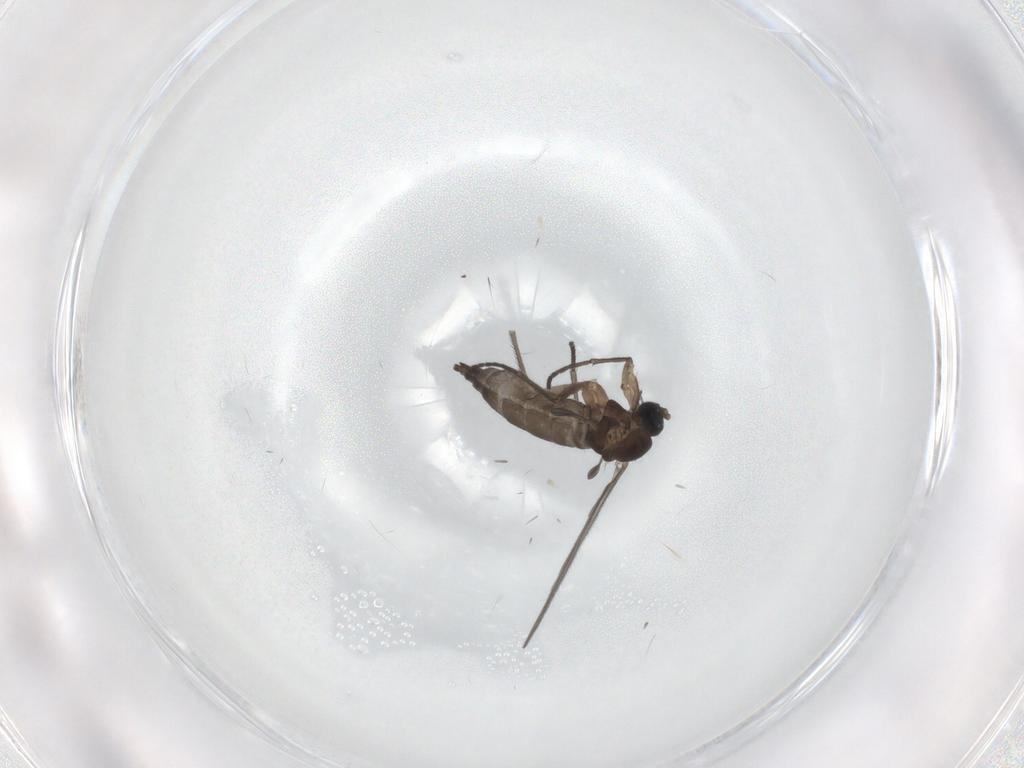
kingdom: Animalia
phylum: Arthropoda
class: Insecta
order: Diptera
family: Sciaridae
